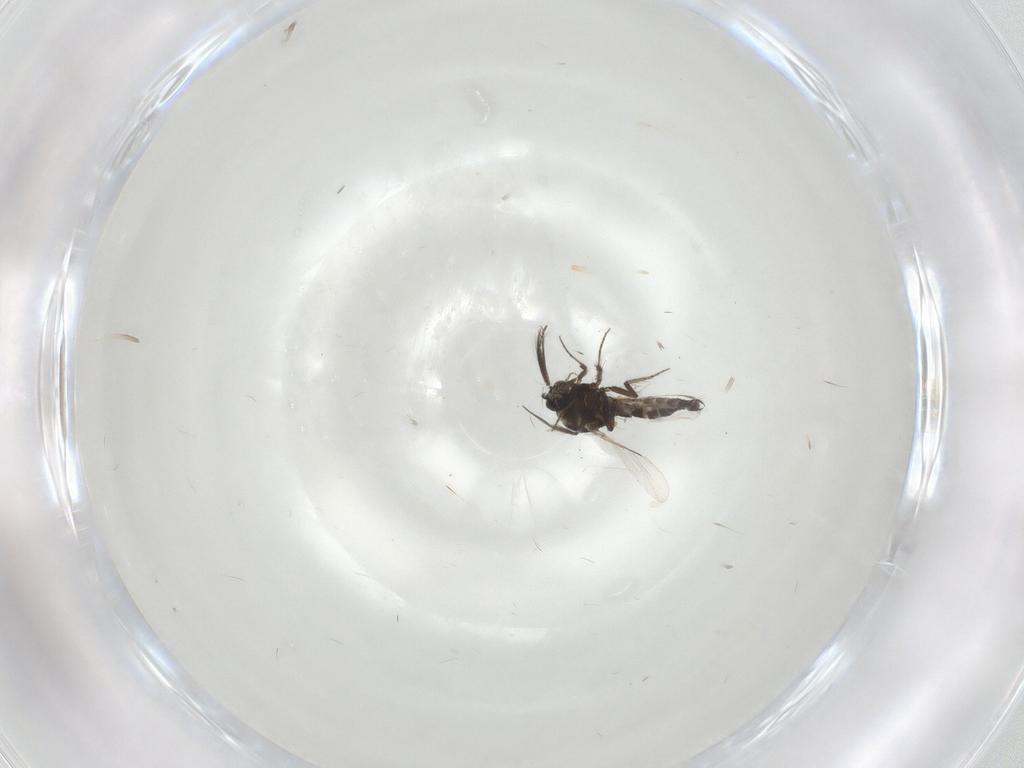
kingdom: Animalia
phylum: Arthropoda
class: Insecta
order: Diptera
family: Ceratopogonidae
